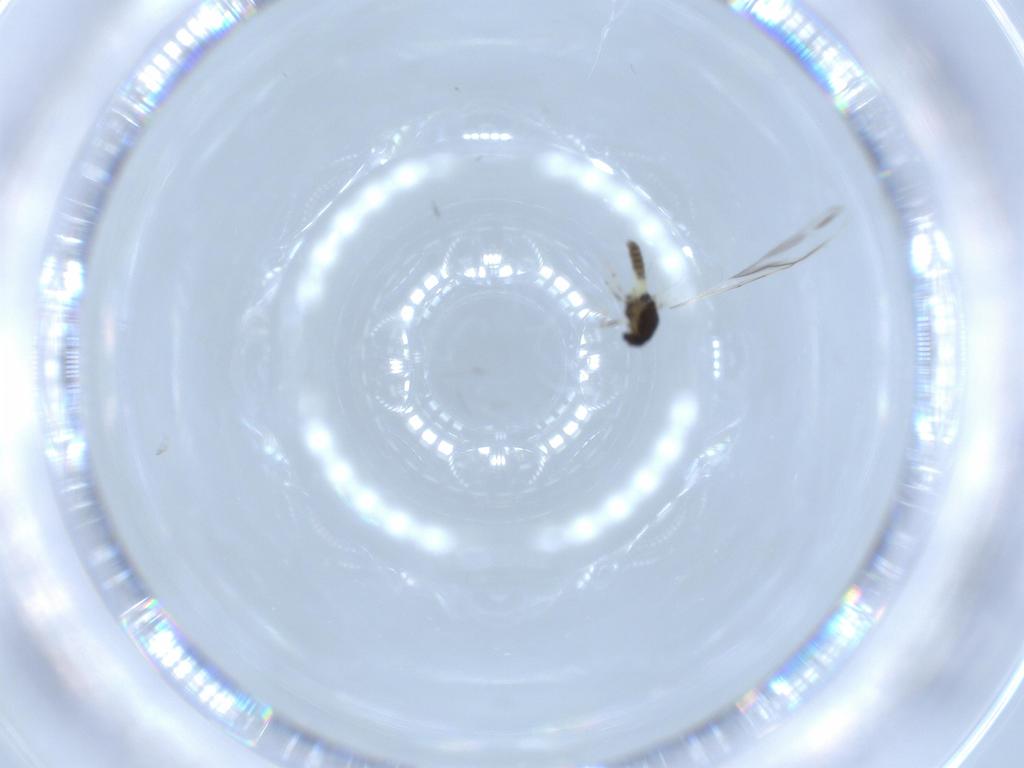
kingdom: Animalia
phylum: Arthropoda
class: Insecta
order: Diptera
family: Chironomidae
